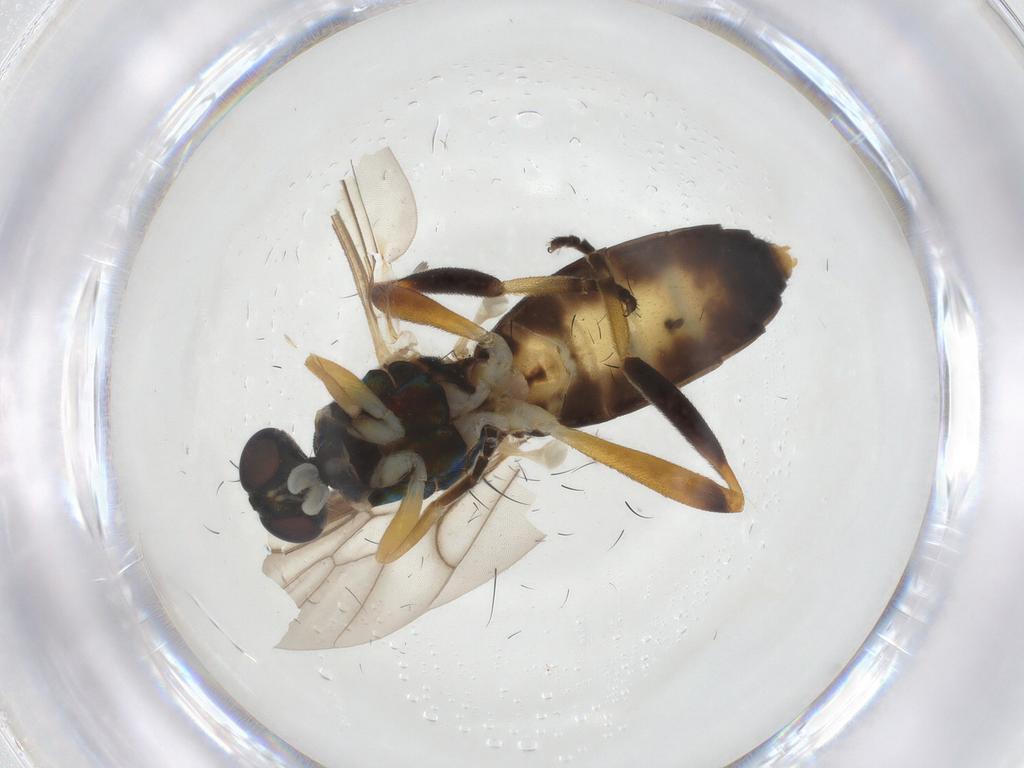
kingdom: Animalia
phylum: Arthropoda
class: Insecta
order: Diptera
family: Stratiomyidae
